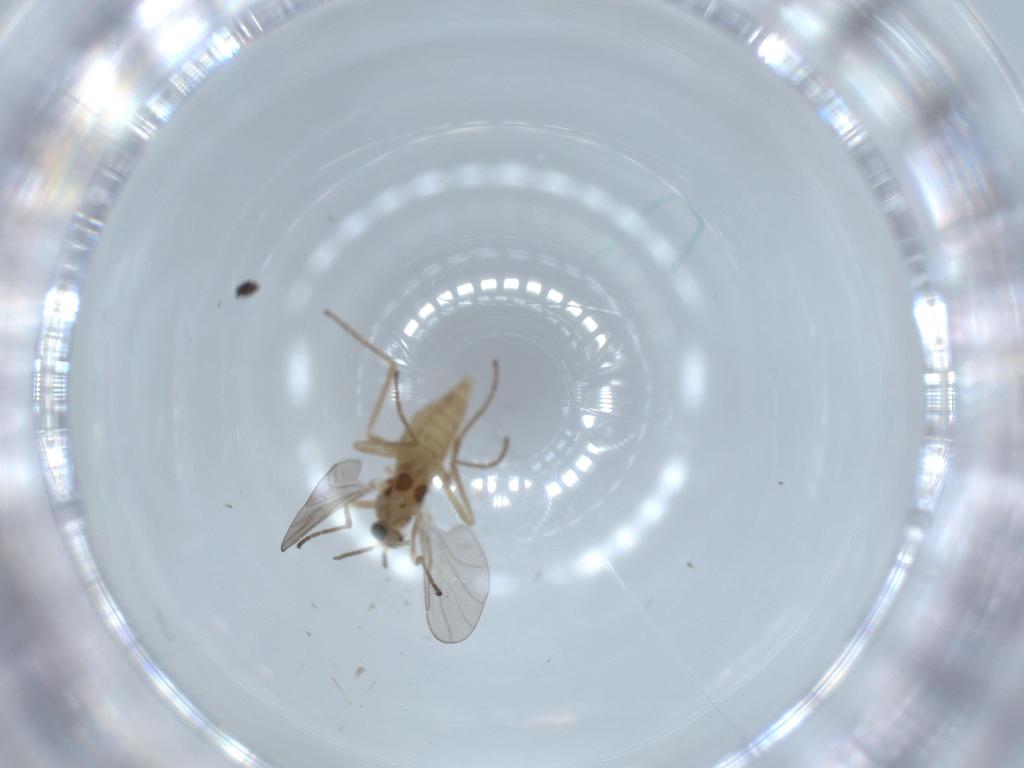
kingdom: Animalia
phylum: Arthropoda
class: Insecta
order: Diptera
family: Cecidomyiidae
